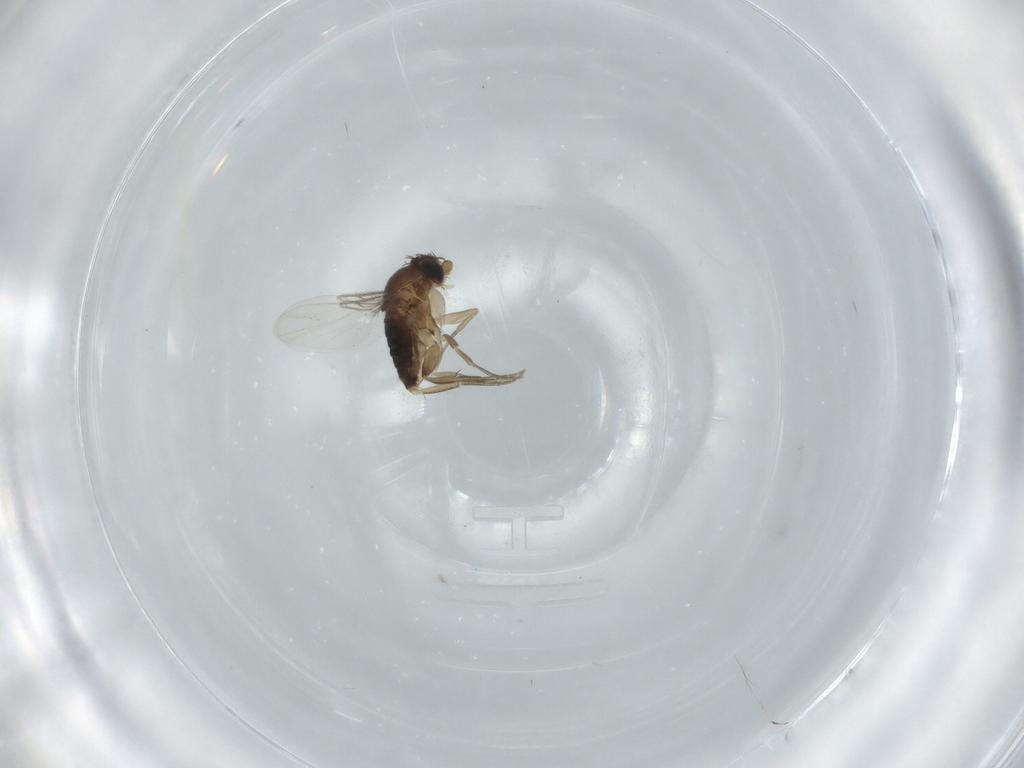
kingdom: Animalia
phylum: Arthropoda
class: Insecta
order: Diptera
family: Phoridae
